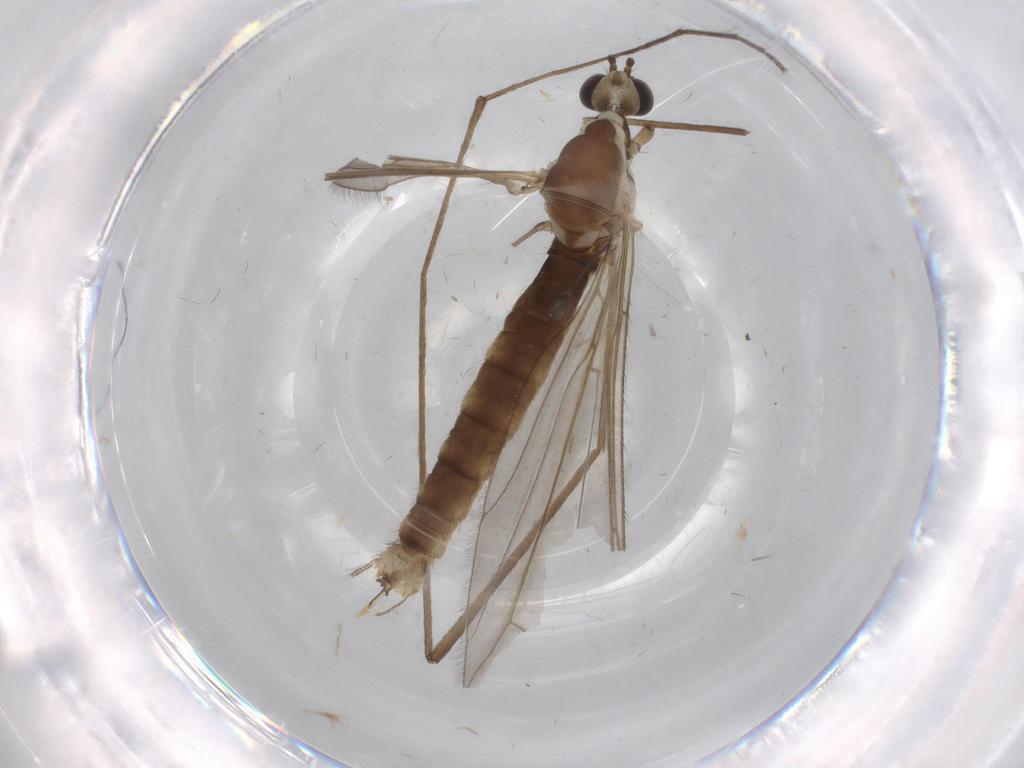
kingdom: Animalia
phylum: Arthropoda
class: Insecta
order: Diptera
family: Limoniidae
